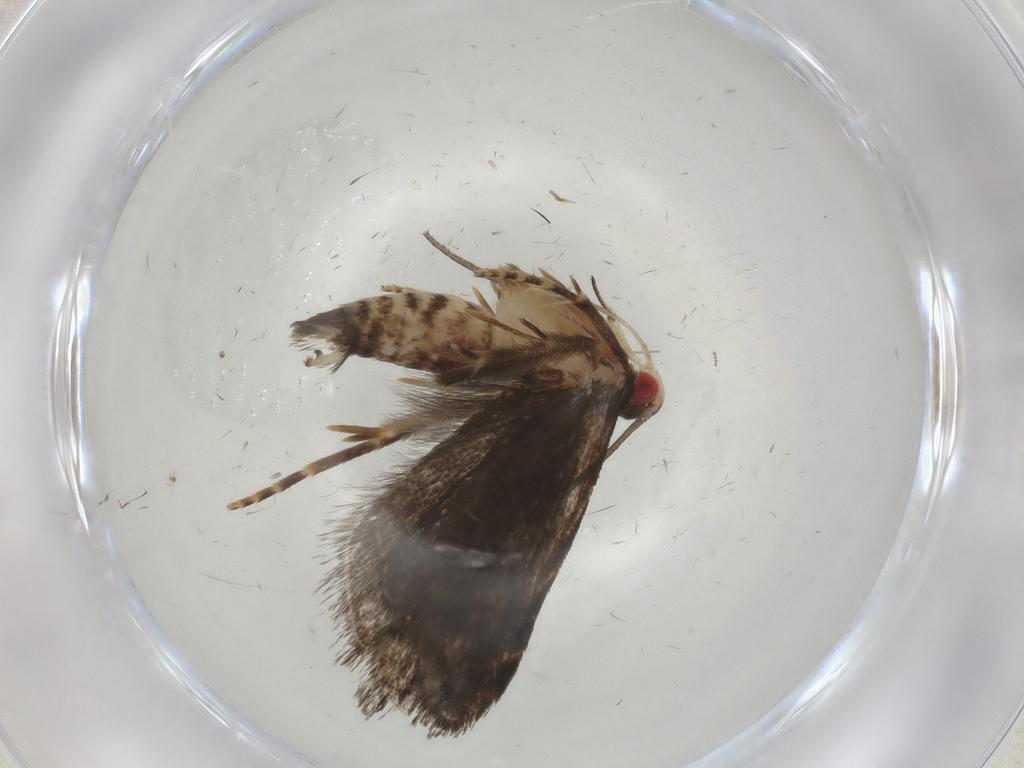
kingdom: Animalia
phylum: Arthropoda
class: Insecta
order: Lepidoptera
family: Gelechiidae
